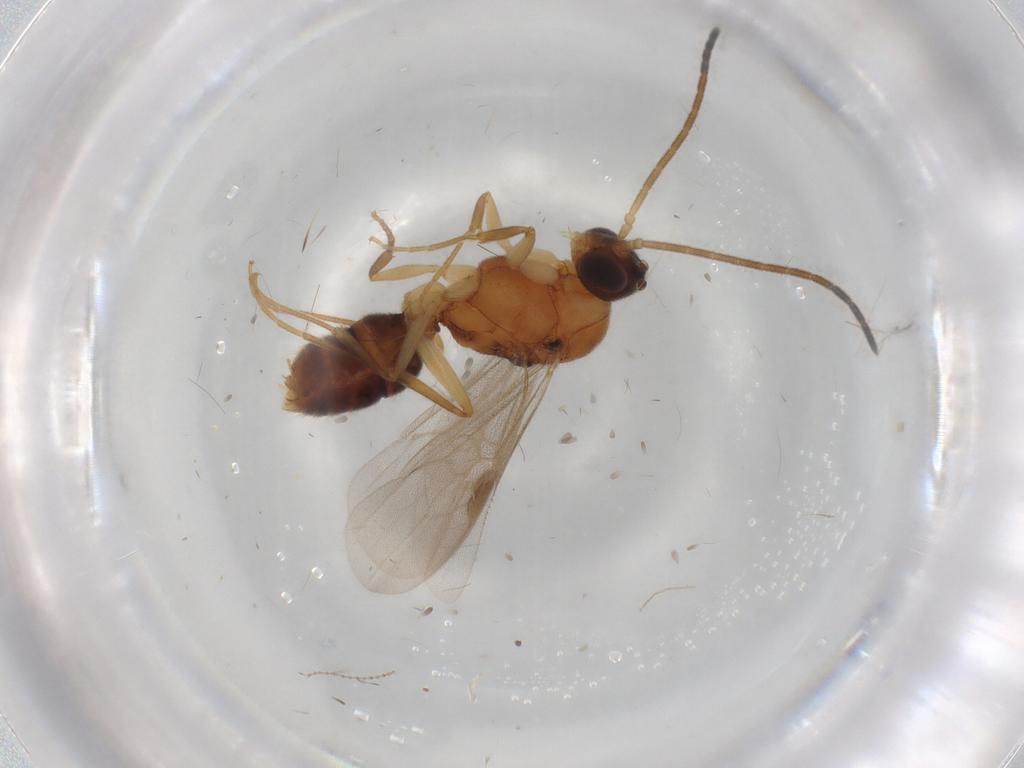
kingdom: Animalia
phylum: Arthropoda
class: Insecta
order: Hymenoptera
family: Formicidae
